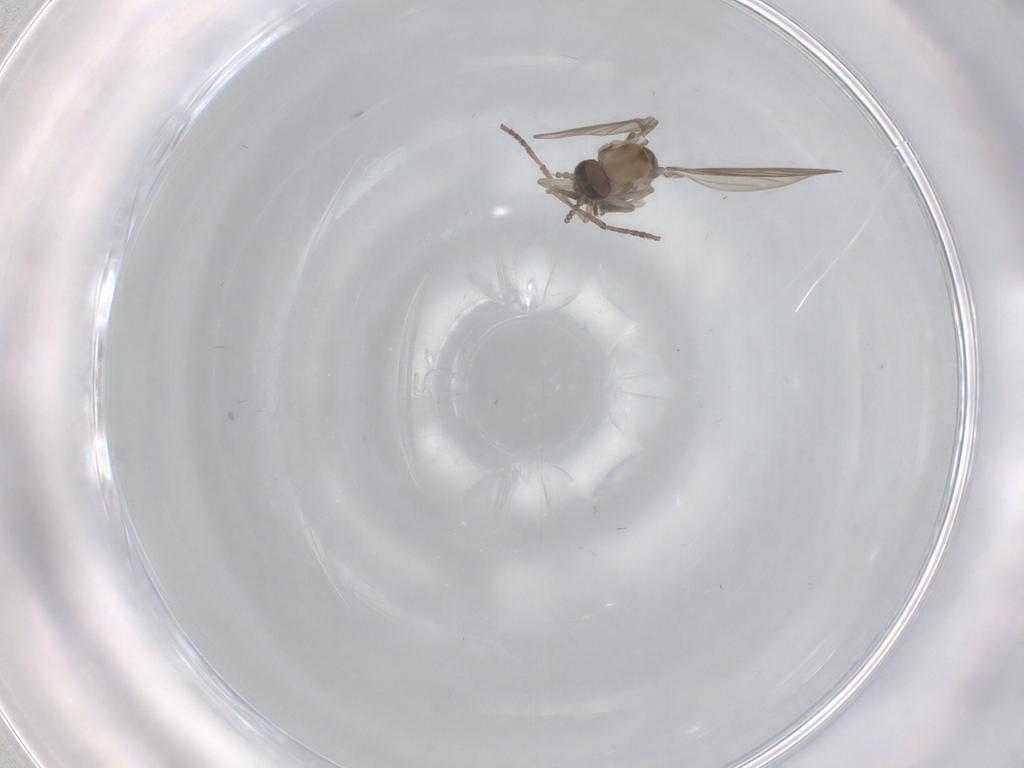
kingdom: Animalia
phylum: Arthropoda
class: Insecta
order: Diptera
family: Psychodidae
